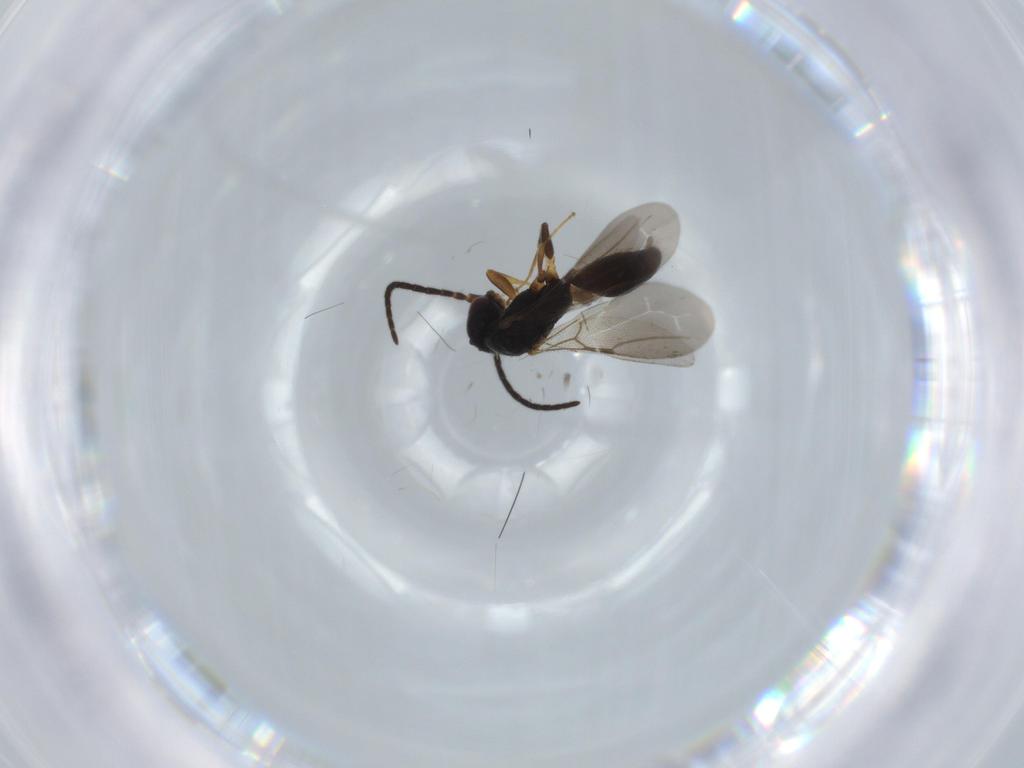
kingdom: Animalia
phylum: Arthropoda
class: Insecta
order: Hymenoptera
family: Bethylidae
